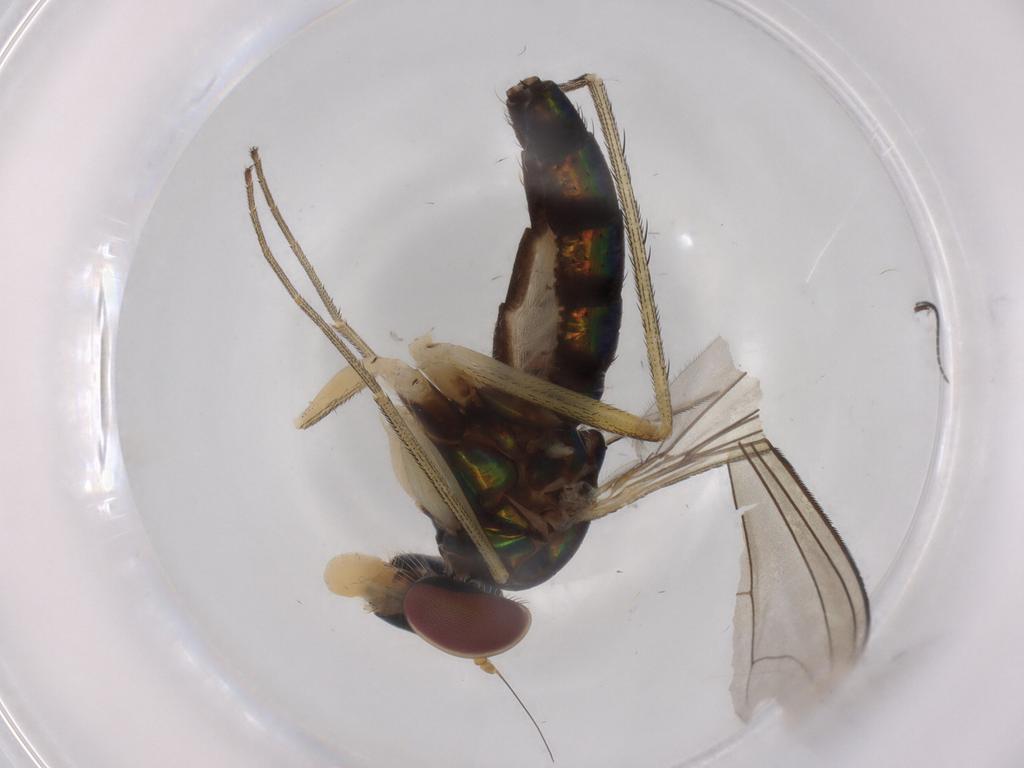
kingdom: Animalia
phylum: Arthropoda
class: Insecta
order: Diptera
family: Dolichopodidae
